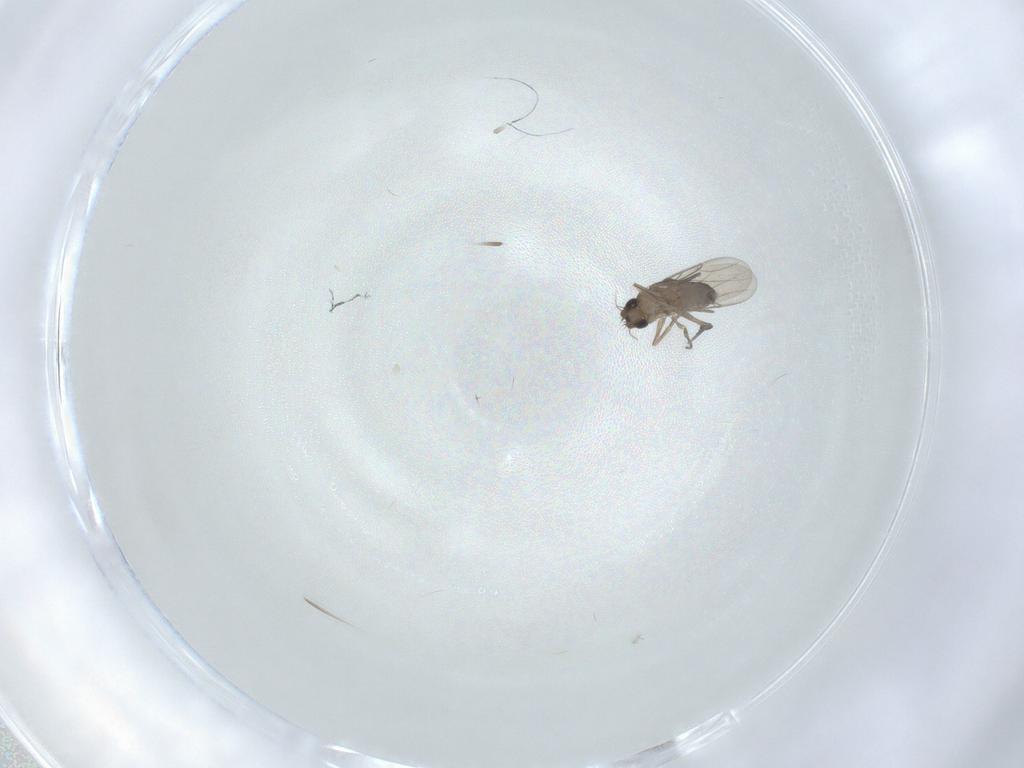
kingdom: Animalia
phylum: Arthropoda
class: Insecta
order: Diptera
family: Phoridae
